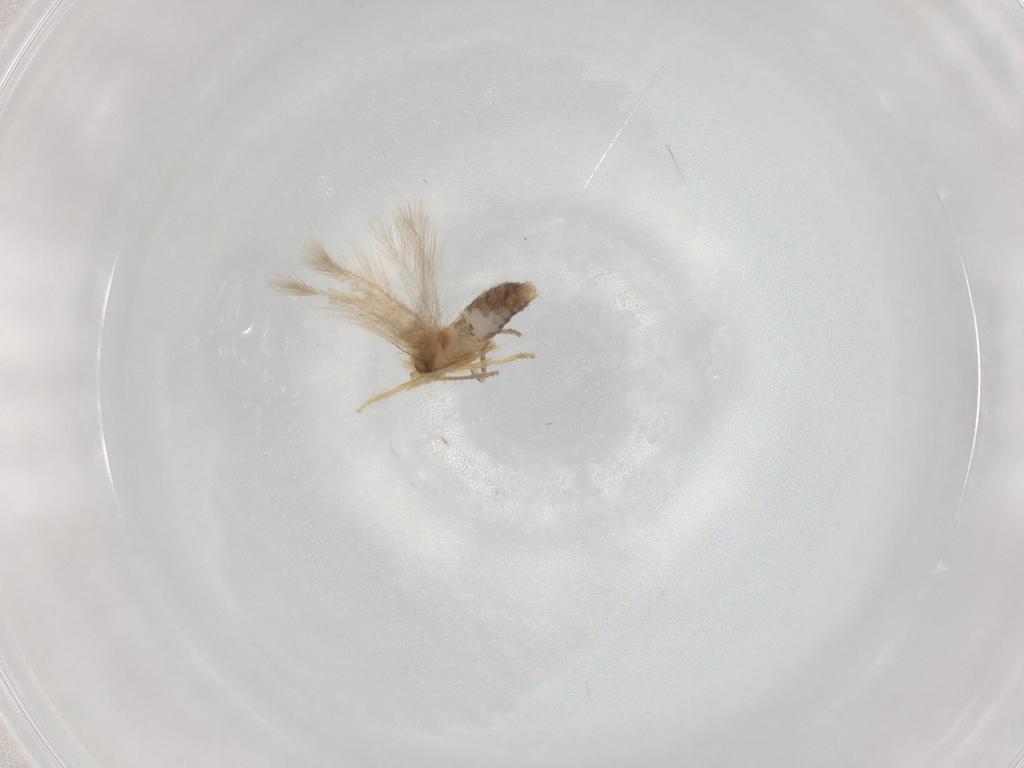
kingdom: Animalia
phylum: Arthropoda
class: Insecta
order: Lepidoptera
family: Nepticulidae
